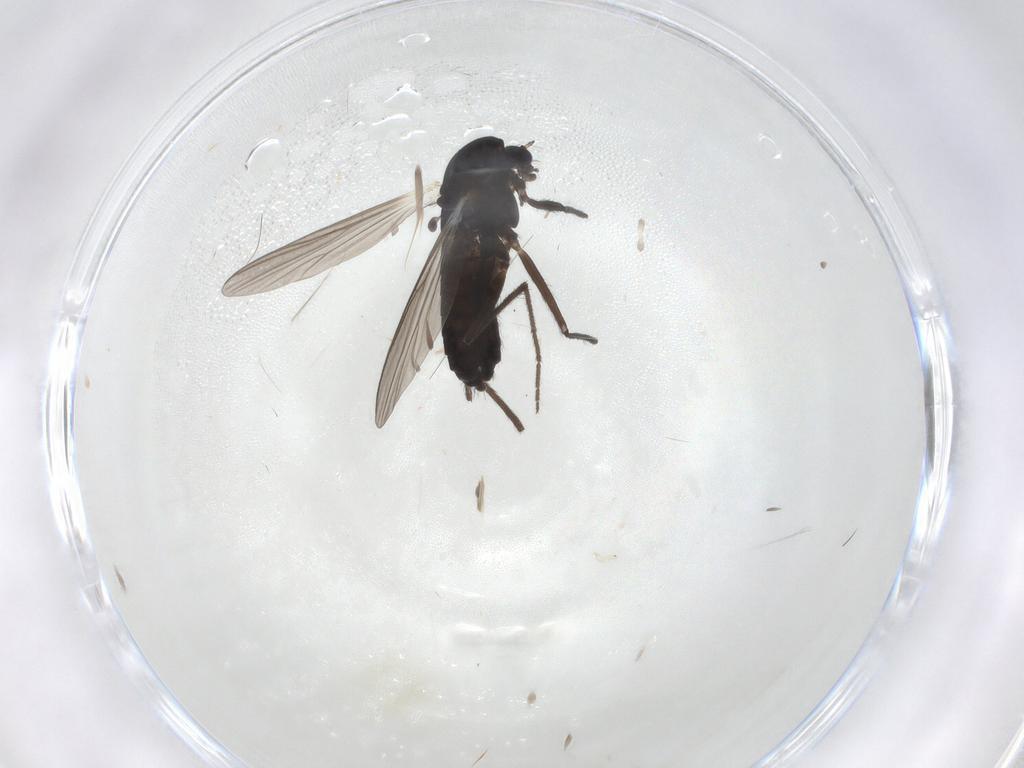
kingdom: Animalia
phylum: Arthropoda
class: Insecta
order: Diptera
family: Chironomidae
